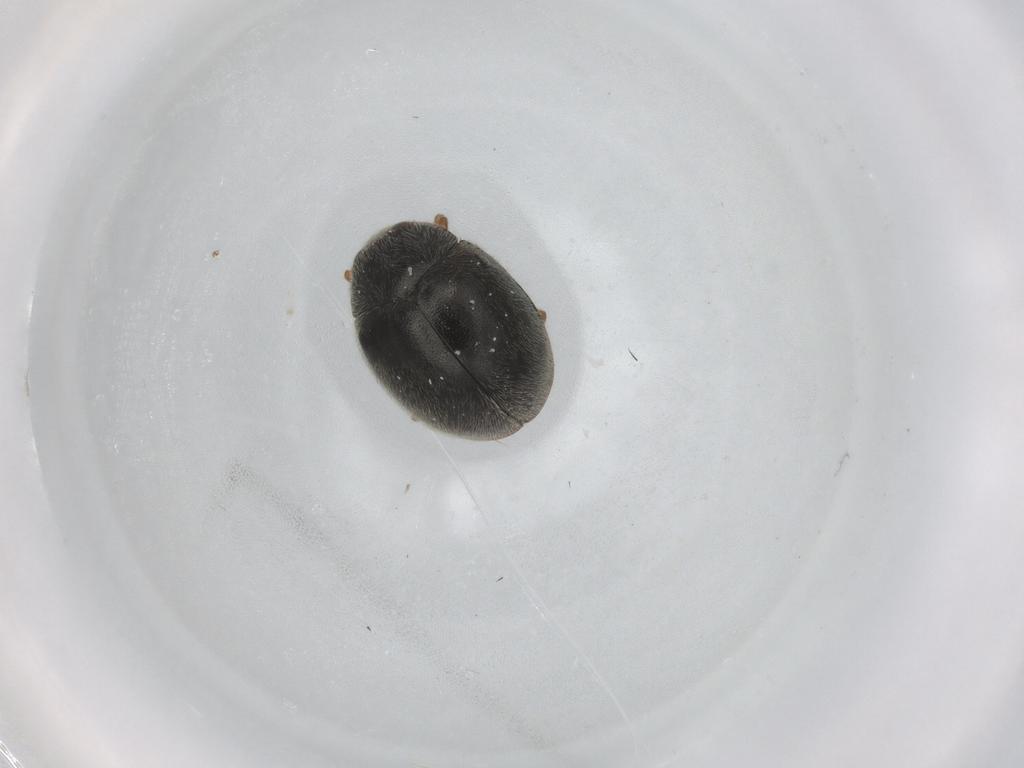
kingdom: Animalia
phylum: Arthropoda
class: Insecta
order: Coleoptera
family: Coccinellidae
